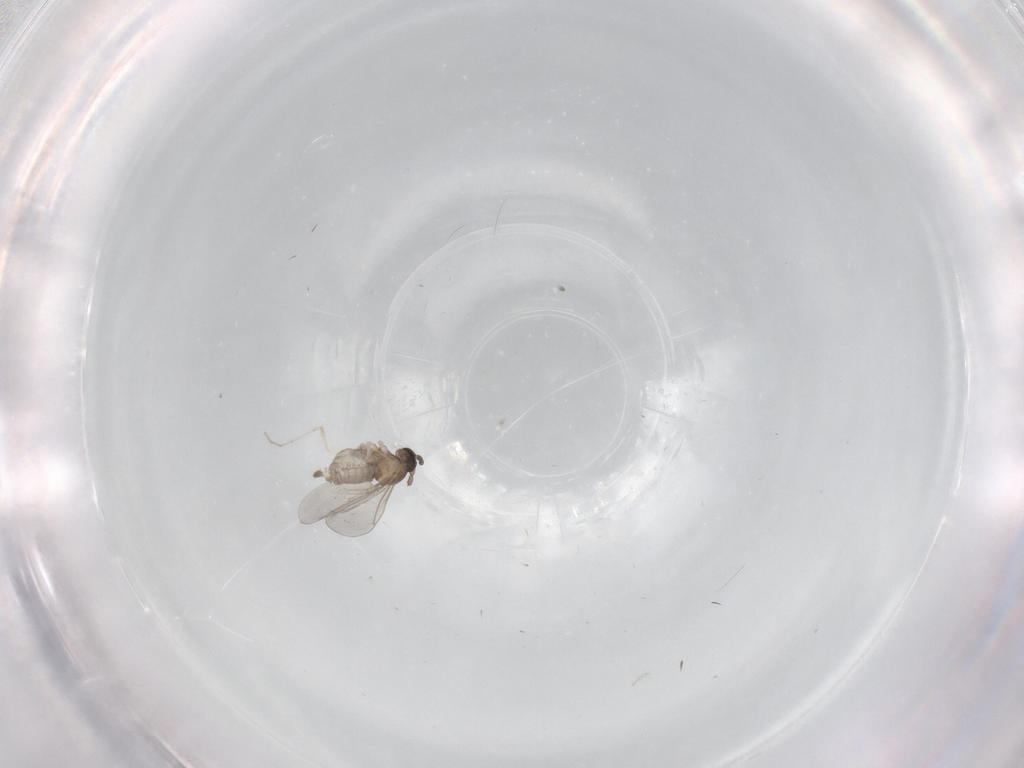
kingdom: Animalia
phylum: Arthropoda
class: Insecta
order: Diptera
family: Cecidomyiidae
